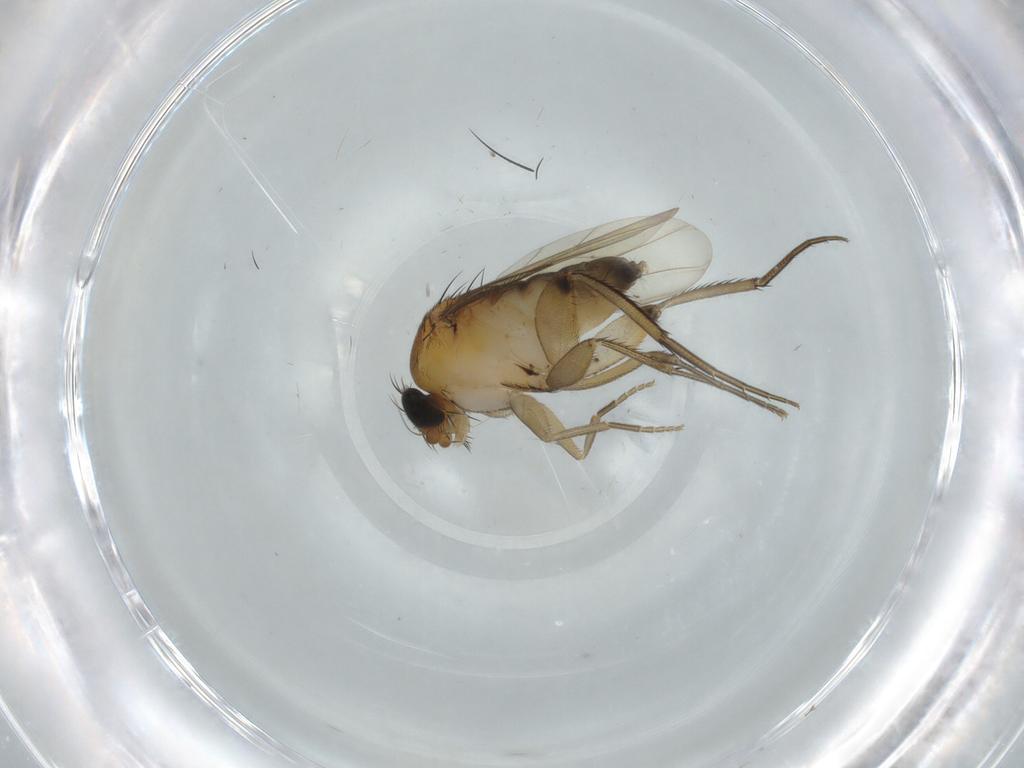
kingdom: Animalia
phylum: Arthropoda
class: Insecta
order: Diptera
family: Phoridae
